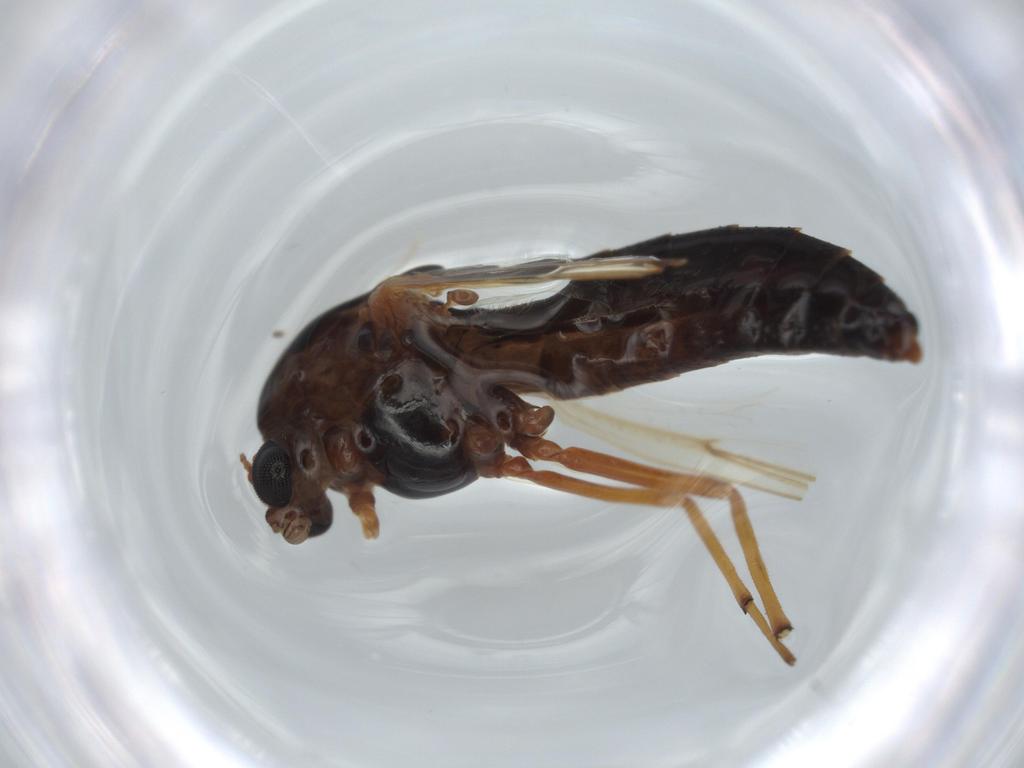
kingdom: Animalia
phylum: Arthropoda
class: Insecta
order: Diptera
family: Chironomidae
